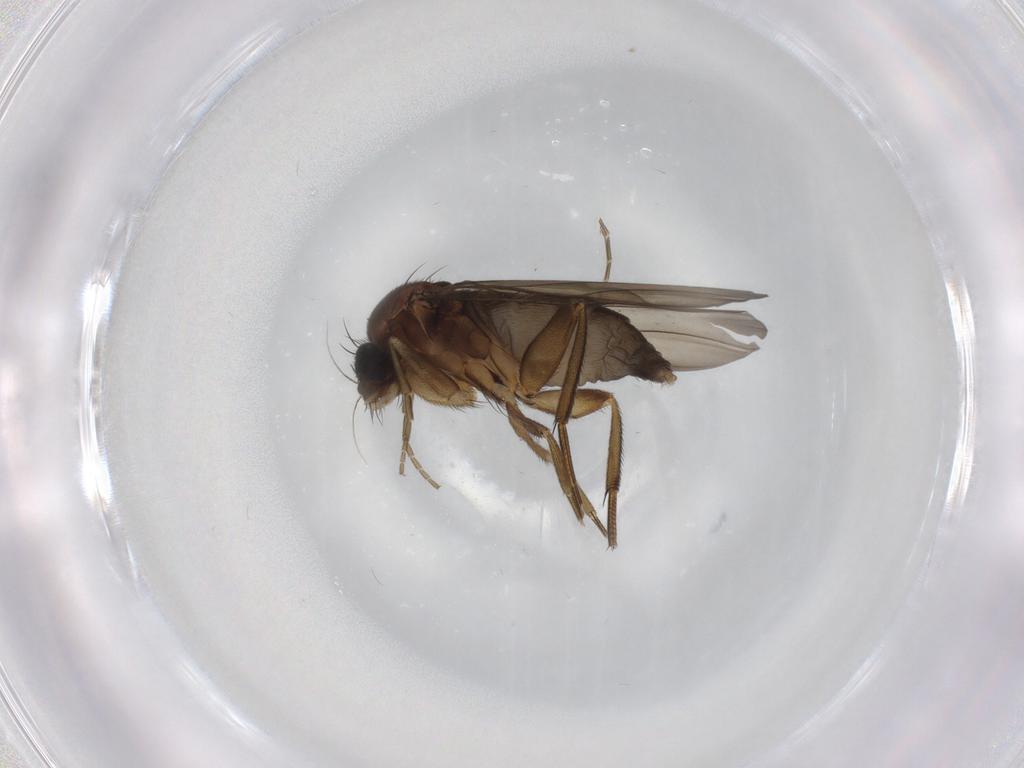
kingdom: Animalia
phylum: Arthropoda
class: Insecta
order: Diptera
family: Phoridae
